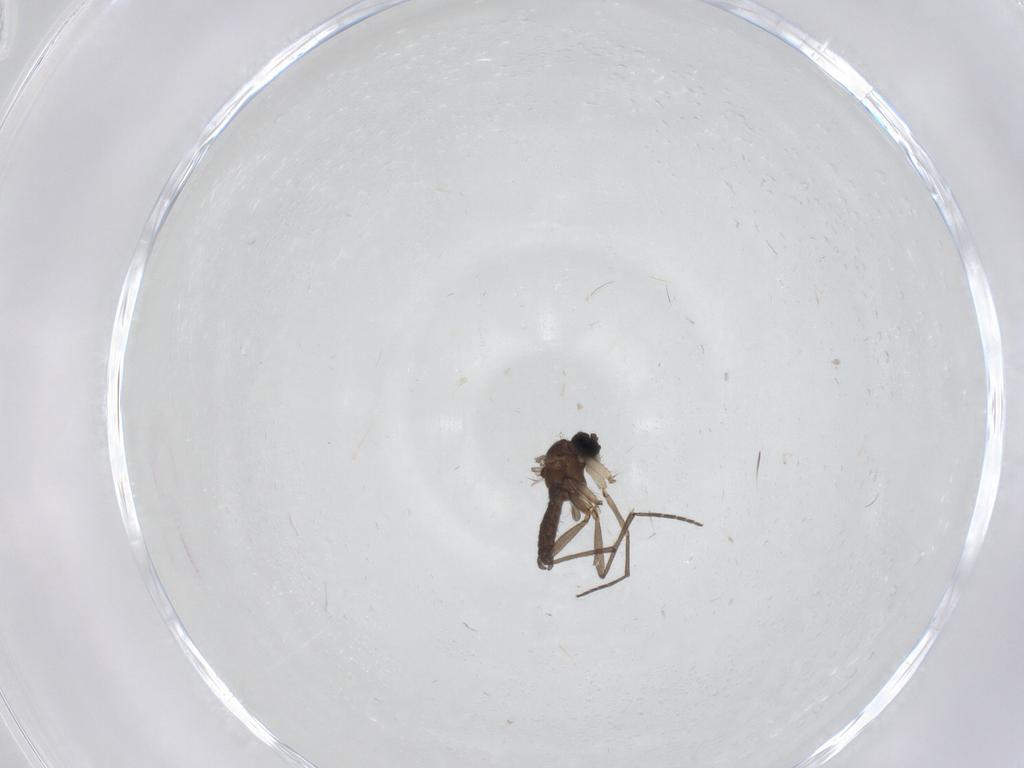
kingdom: Animalia
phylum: Arthropoda
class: Insecta
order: Diptera
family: Sciaridae
